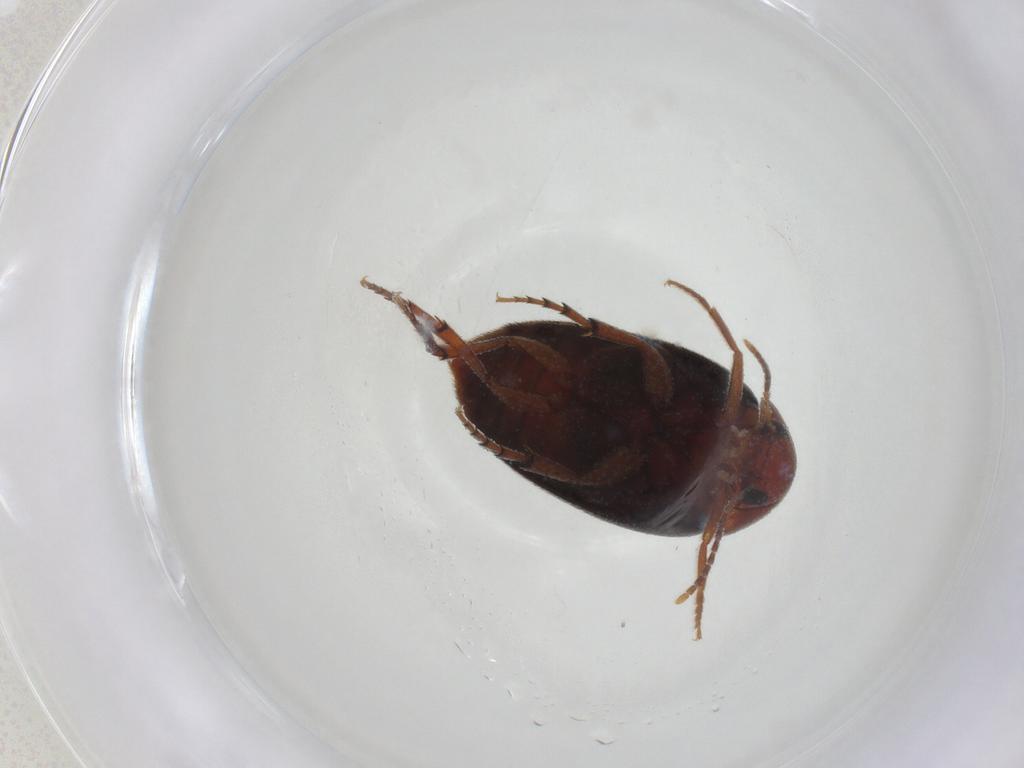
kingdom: Animalia
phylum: Arthropoda
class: Insecta
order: Coleoptera
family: Eucinetidae
